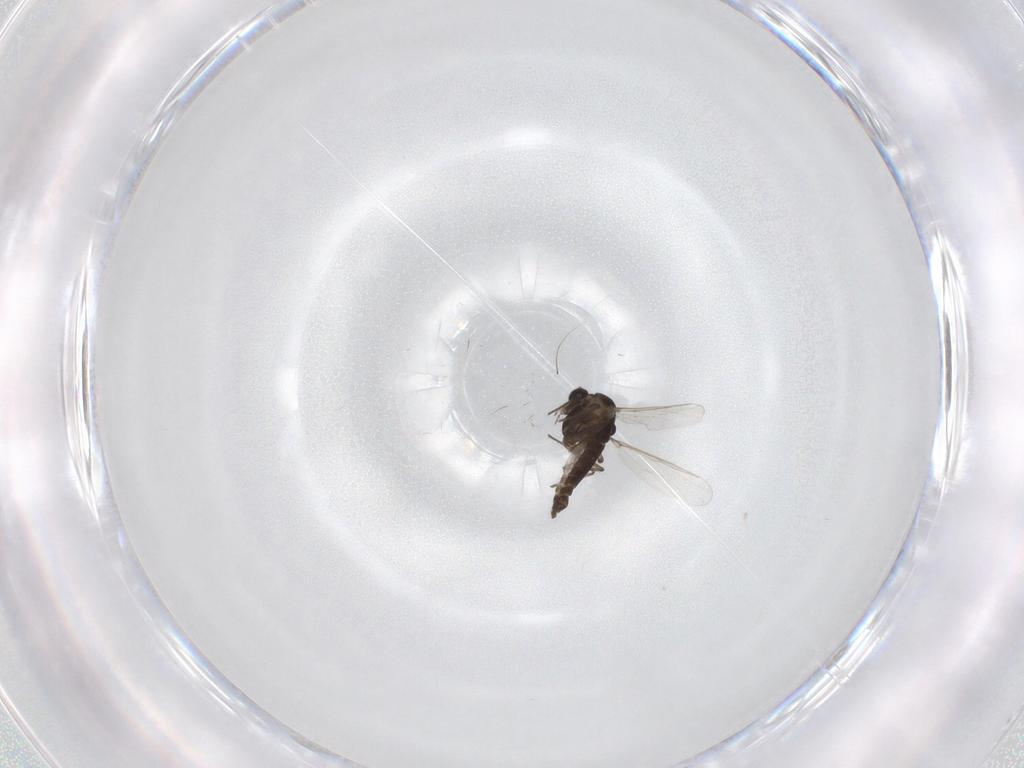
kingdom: Animalia
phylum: Arthropoda
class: Insecta
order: Diptera
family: Chironomidae
